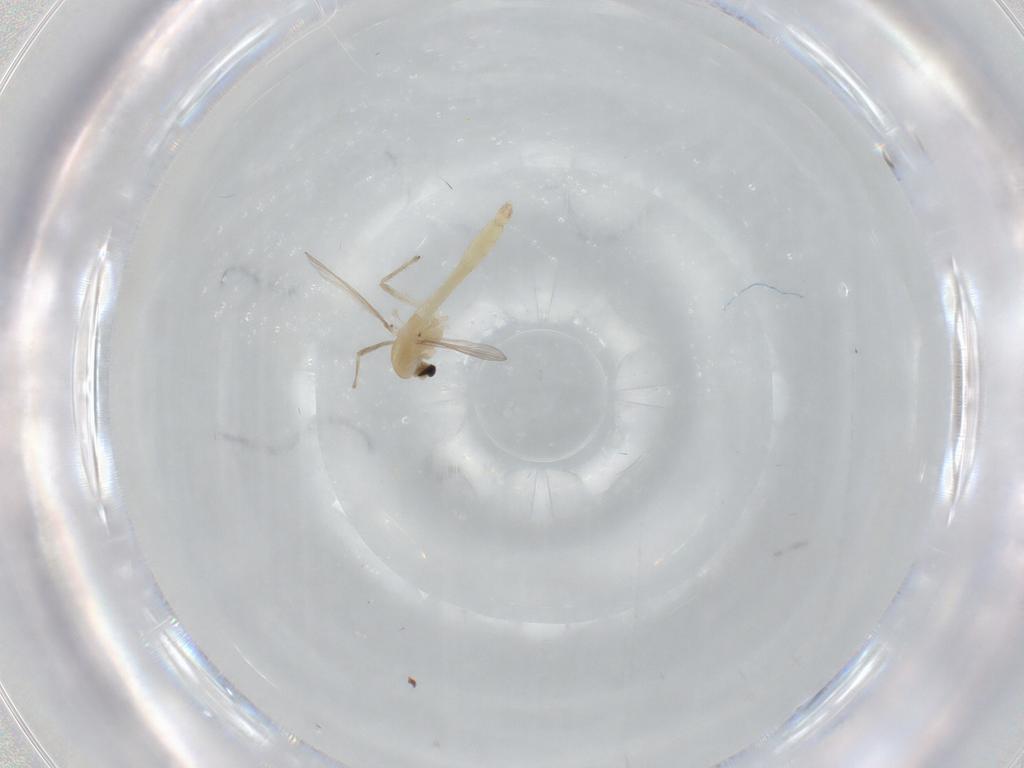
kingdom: Animalia
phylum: Arthropoda
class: Insecta
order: Diptera
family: Chironomidae
